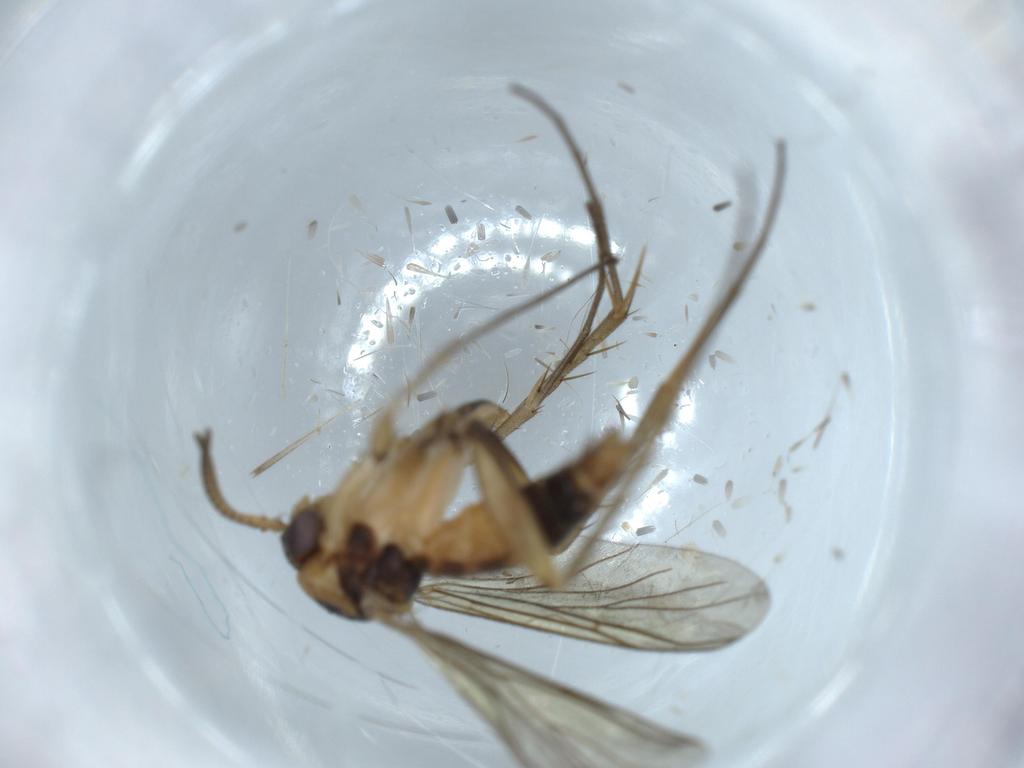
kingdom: Animalia
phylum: Arthropoda
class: Insecta
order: Diptera
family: Mycetophilidae
